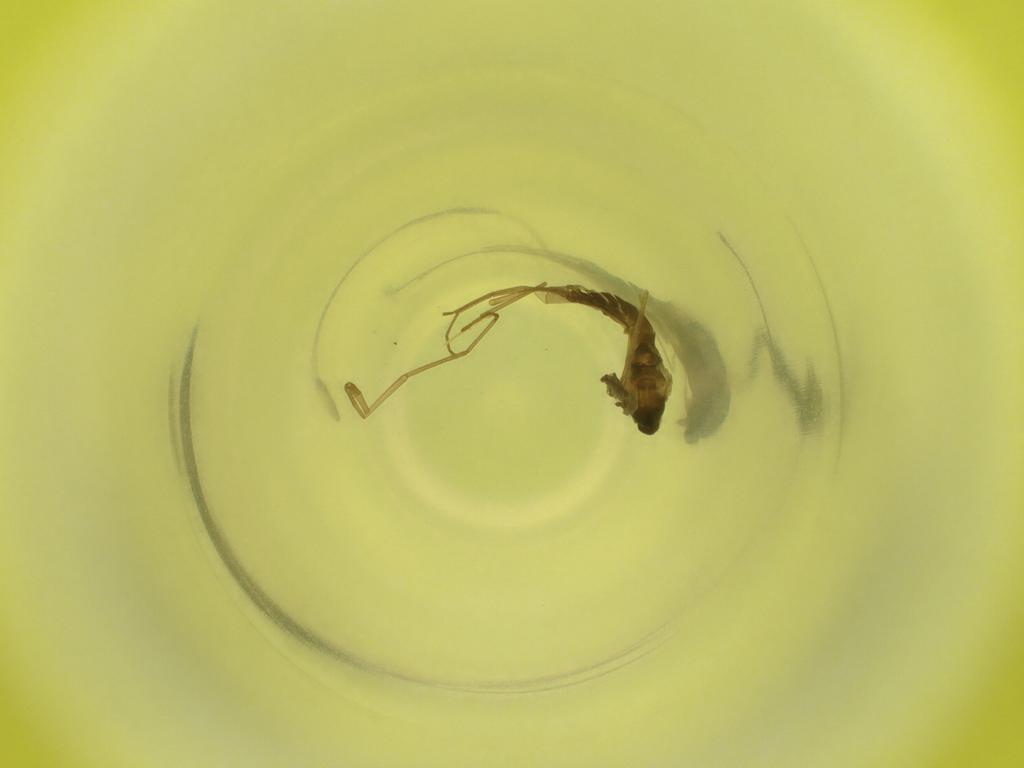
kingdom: Animalia
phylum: Arthropoda
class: Insecta
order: Diptera
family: Cecidomyiidae
